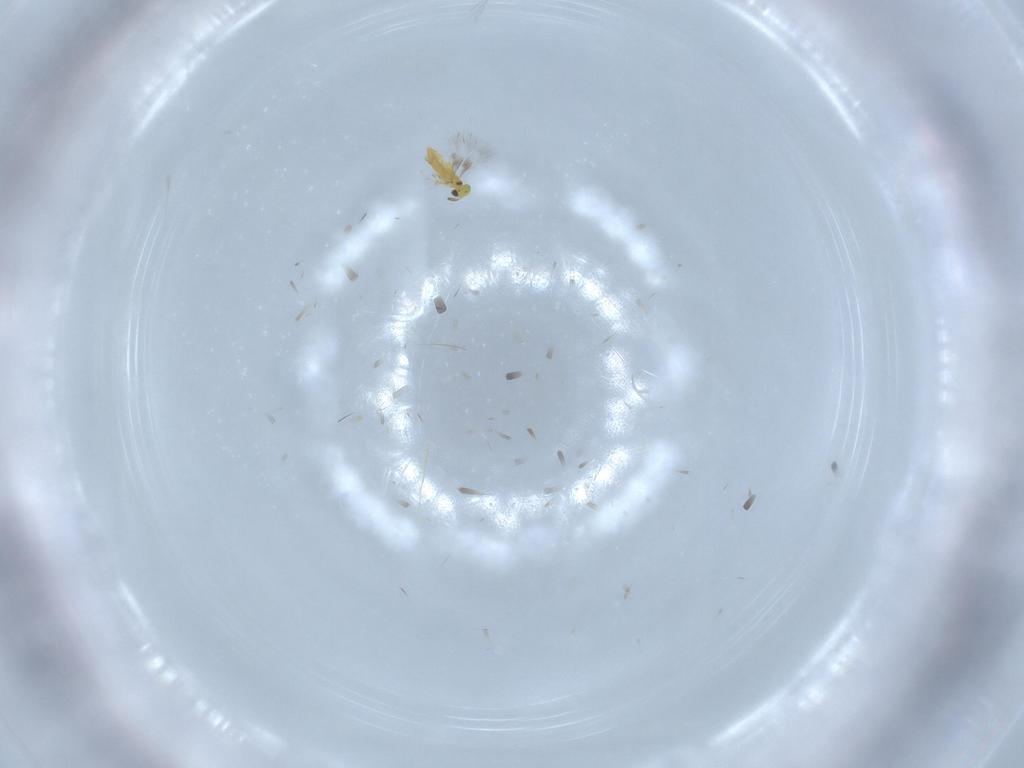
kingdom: Animalia
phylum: Arthropoda
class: Insecta
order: Hymenoptera
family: Signiphoridae
